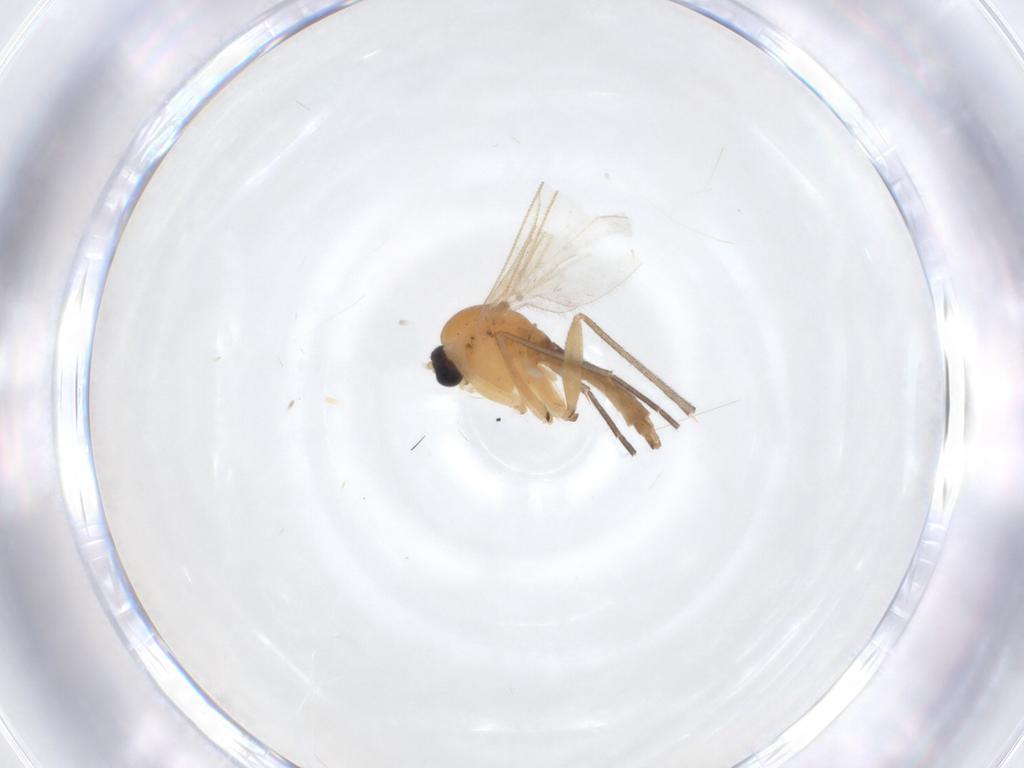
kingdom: Animalia
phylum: Arthropoda
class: Insecta
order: Diptera
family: Sciaridae
